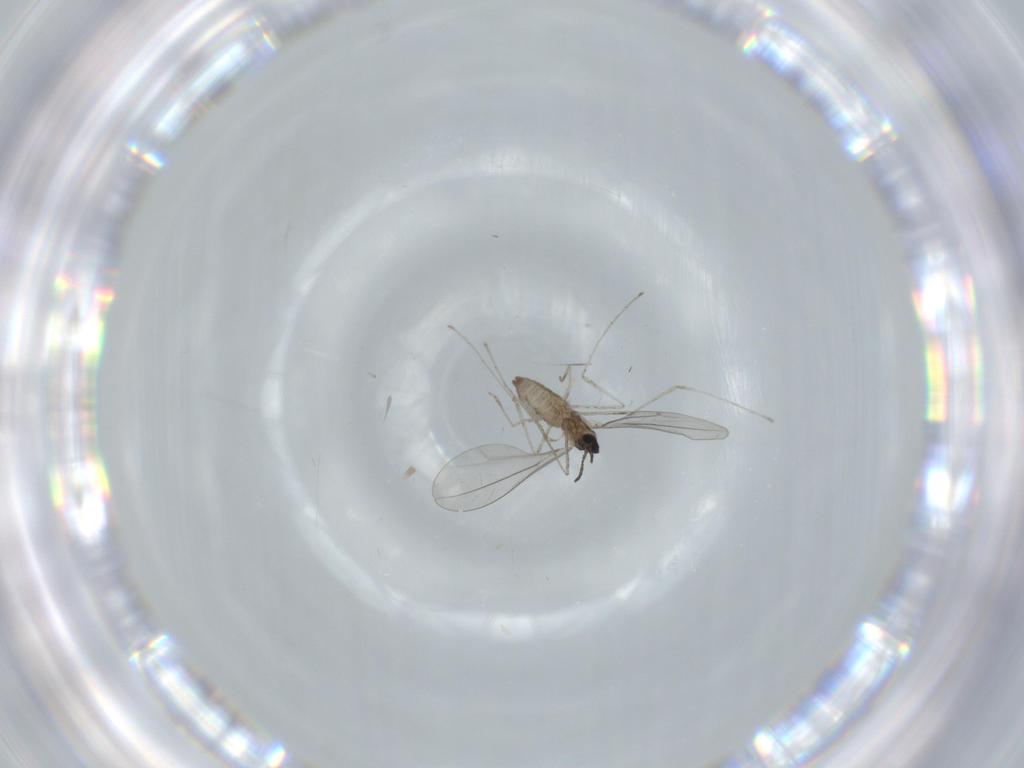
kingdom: Animalia
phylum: Arthropoda
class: Insecta
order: Diptera
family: Cecidomyiidae
